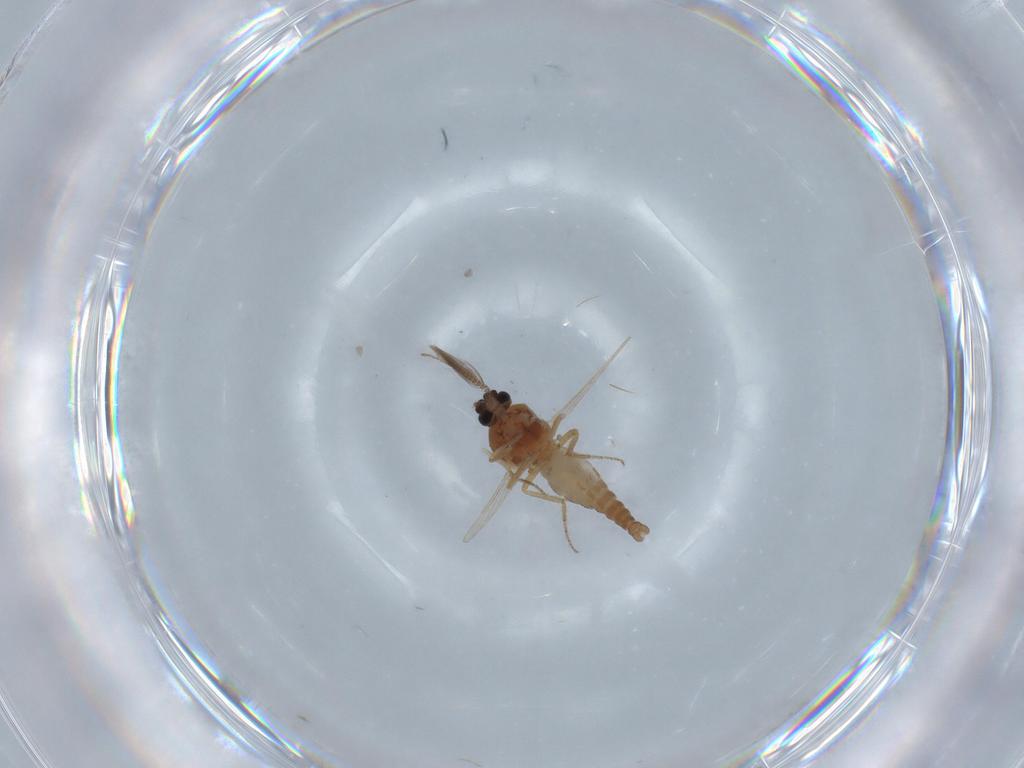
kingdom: Animalia
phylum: Arthropoda
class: Insecta
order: Diptera
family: Ceratopogonidae
